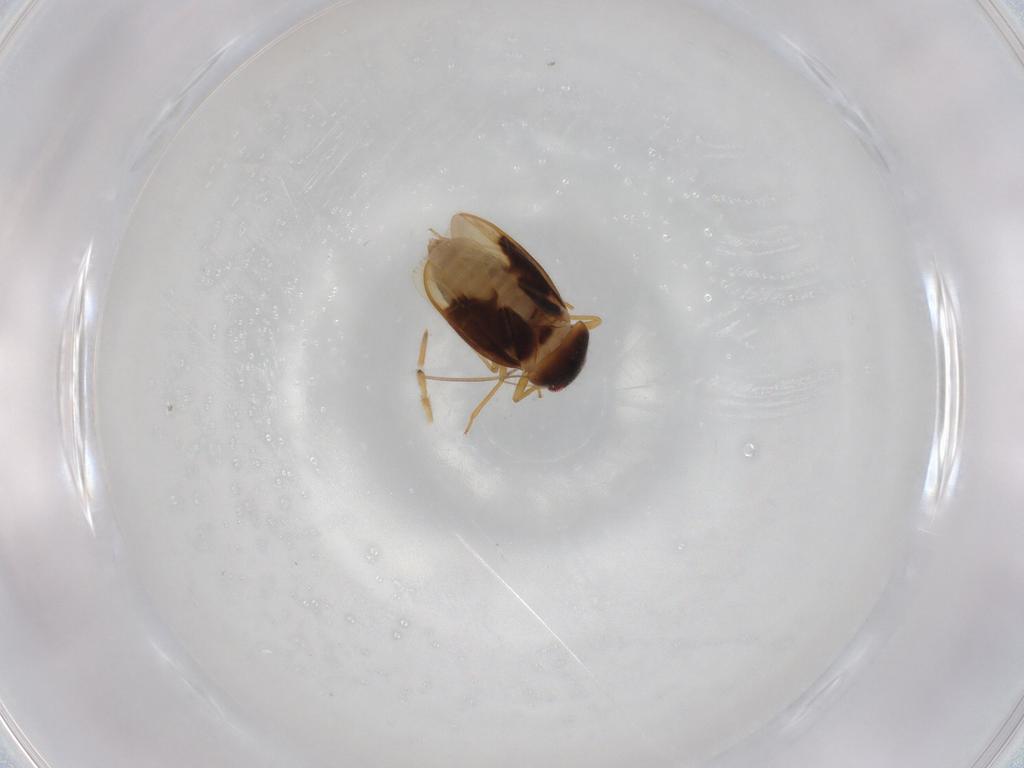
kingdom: Animalia
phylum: Arthropoda
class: Insecta
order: Hemiptera
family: Schizopteridae
